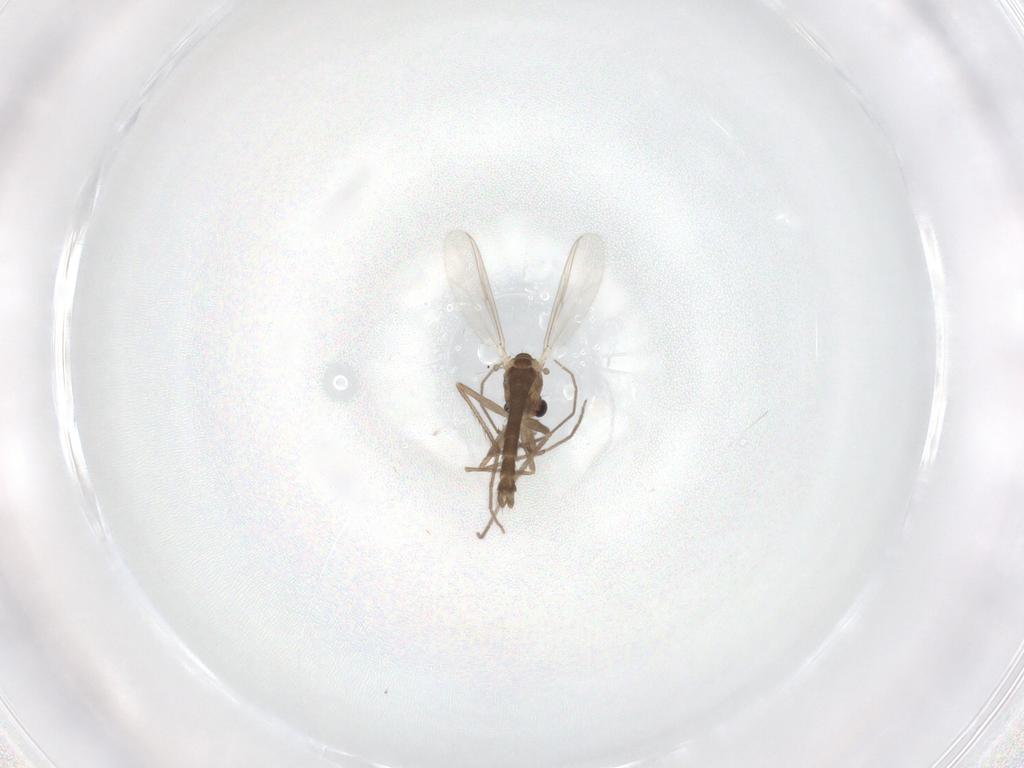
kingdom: Animalia
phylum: Arthropoda
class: Insecta
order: Diptera
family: Chironomidae
